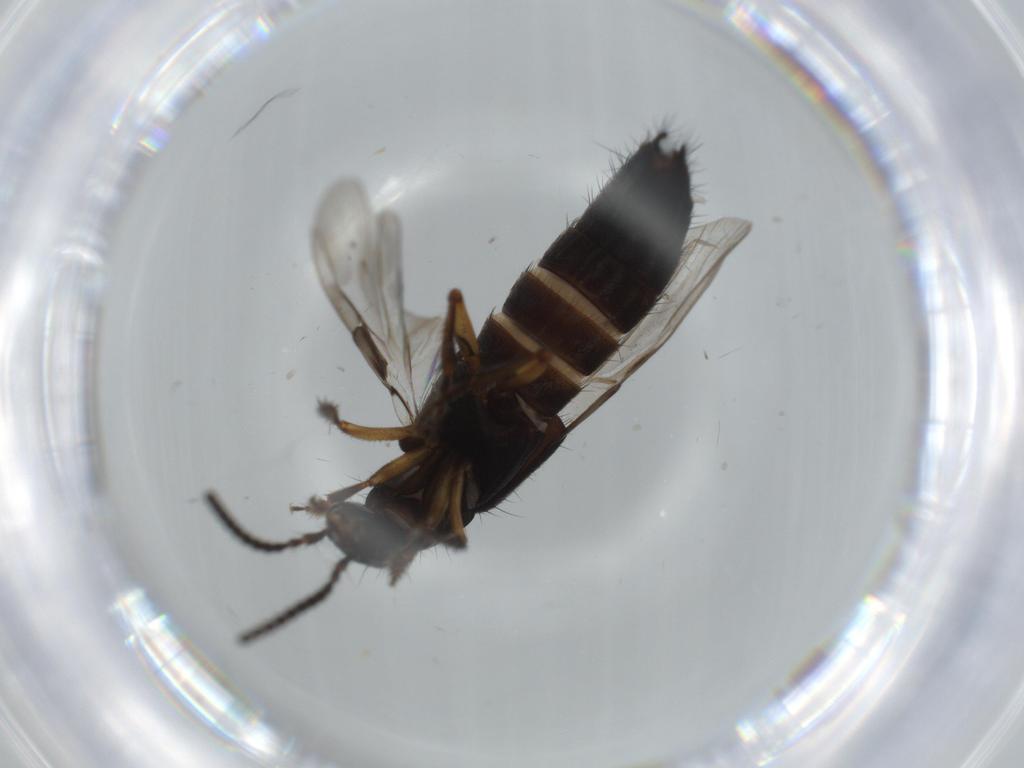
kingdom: Animalia
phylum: Arthropoda
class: Insecta
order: Coleoptera
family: Staphylinidae
